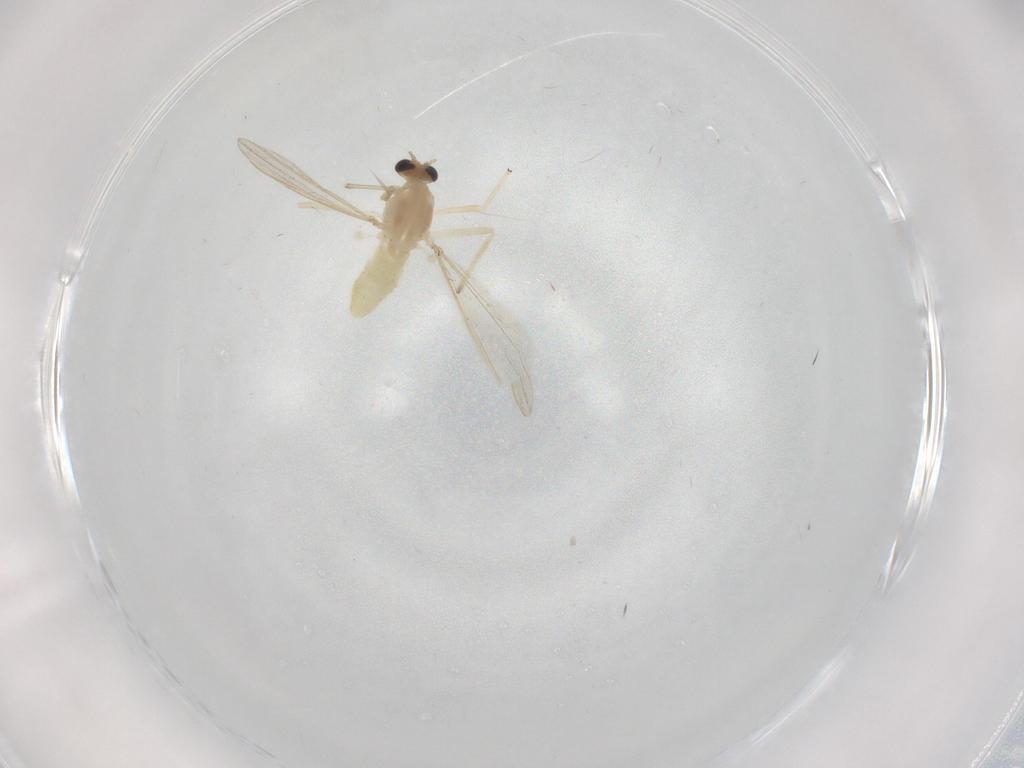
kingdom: Animalia
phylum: Arthropoda
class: Insecta
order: Diptera
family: Chironomidae
